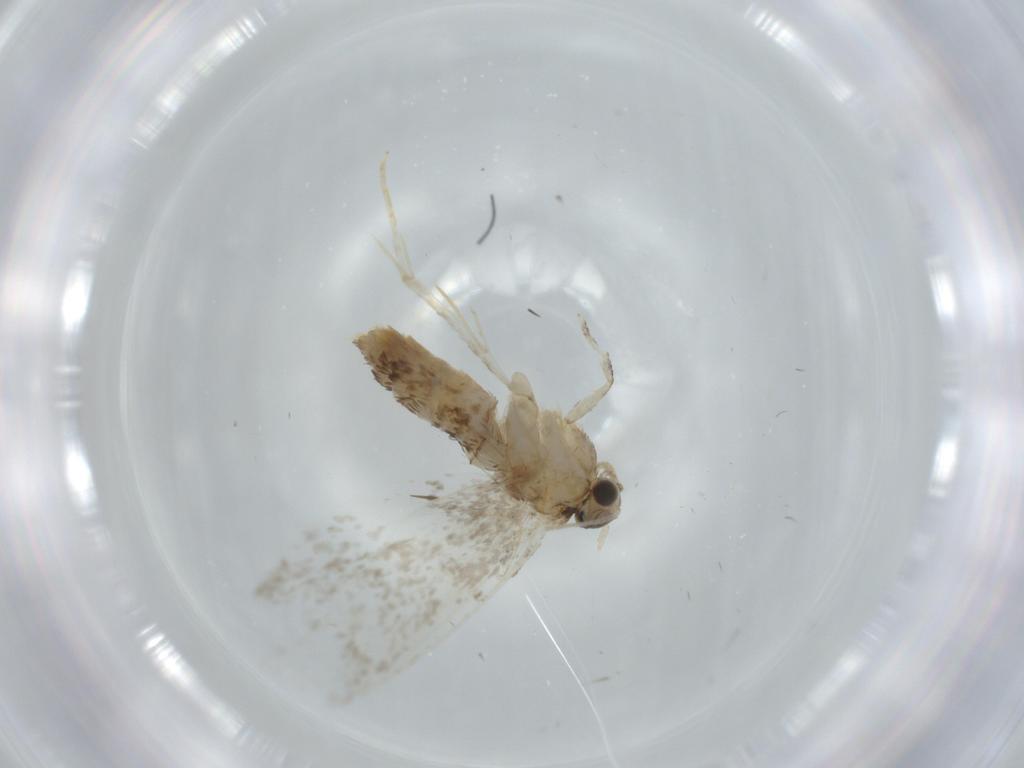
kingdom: Animalia
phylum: Arthropoda
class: Insecta
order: Lepidoptera
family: Tineidae
